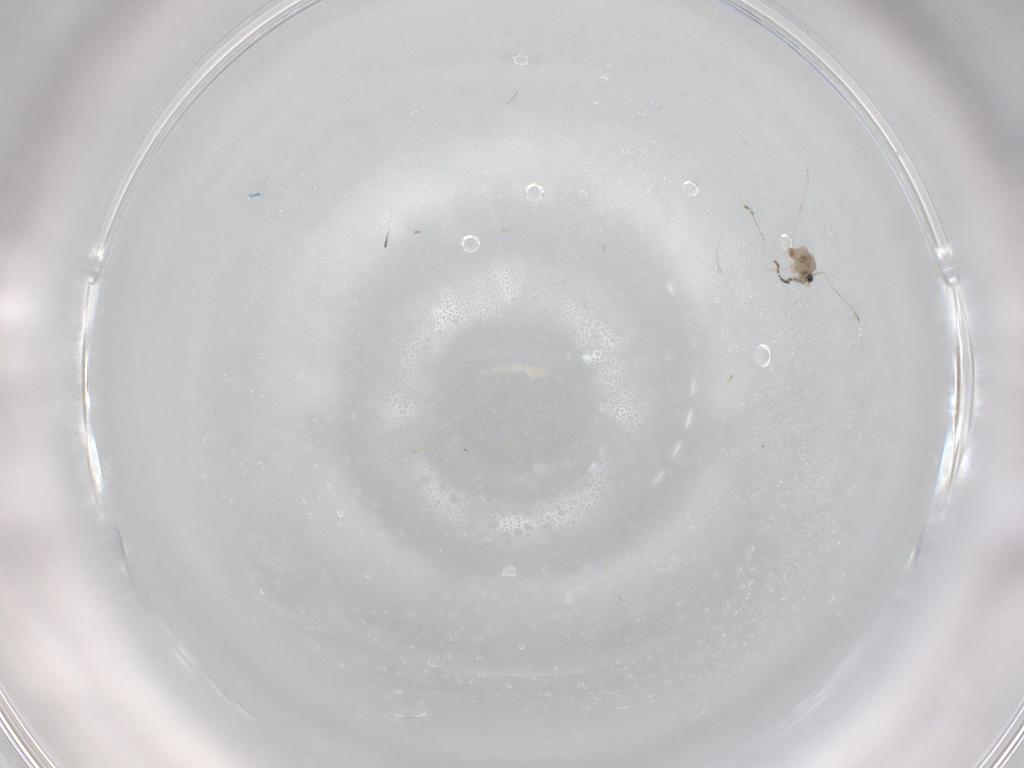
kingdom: Animalia
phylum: Arthropoda
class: Insecta
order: Diptera
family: Cecidomyiidae
